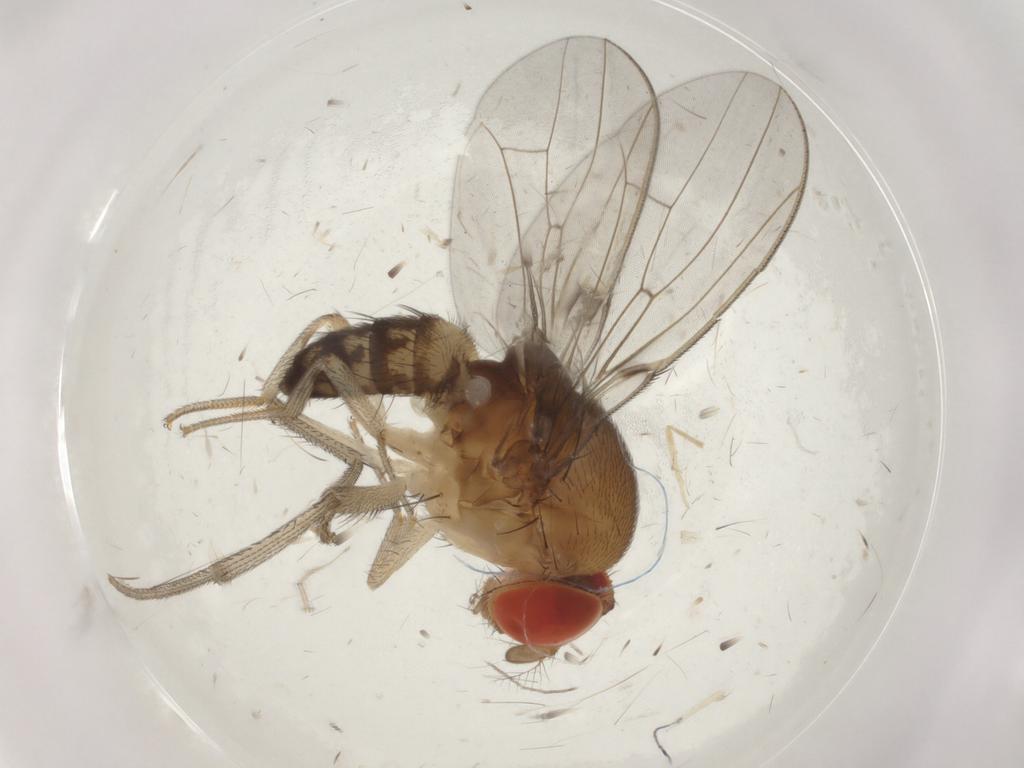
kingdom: Animalia
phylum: Arthropoda
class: Insecta
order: Diptera
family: Drosophilidae
